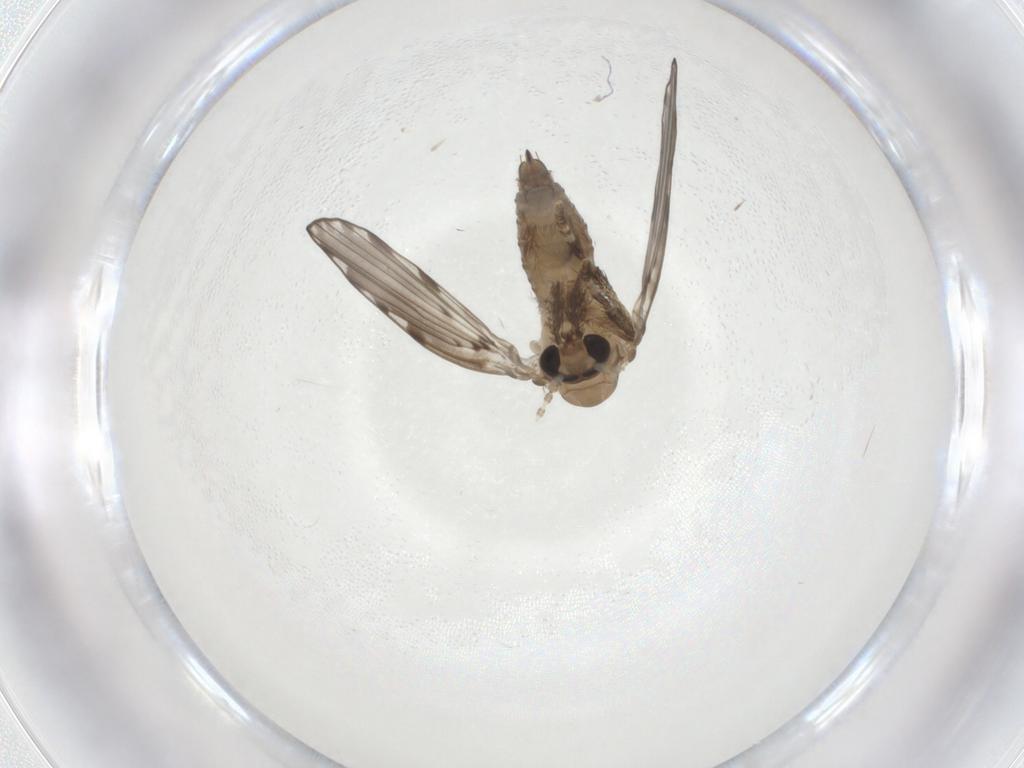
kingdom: Animalia
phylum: Arthropoda
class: Insecta
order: Diptera
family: Psychodidae
